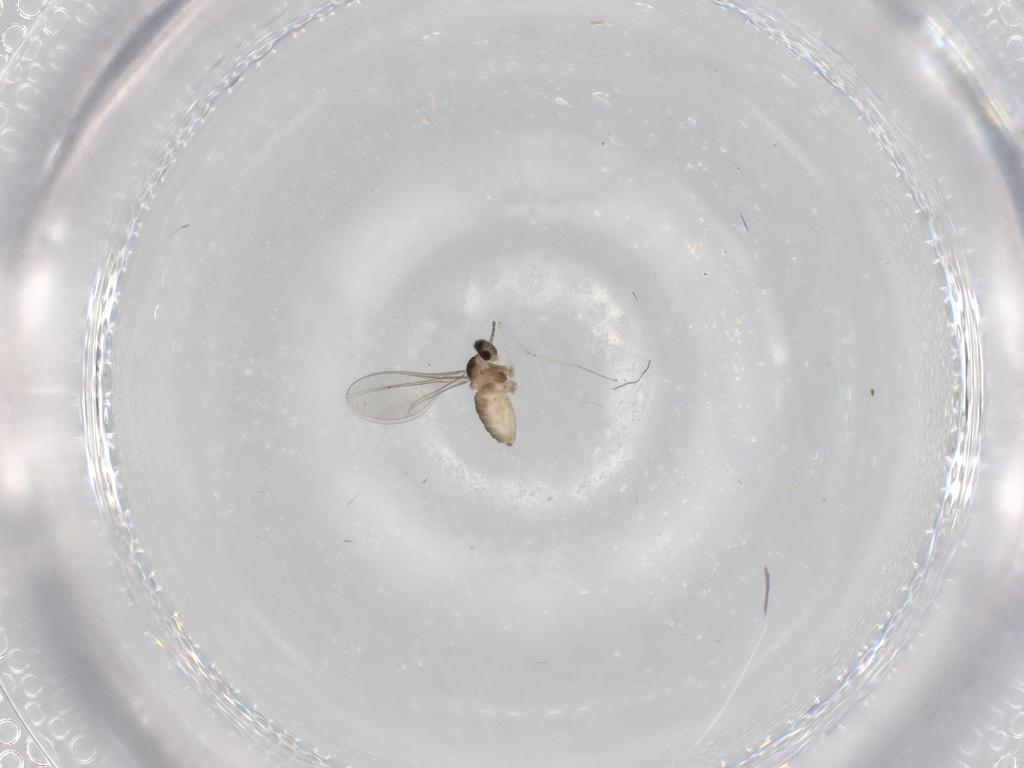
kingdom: Animalia
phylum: Arthropoda
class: Insecta
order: Diptera
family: Cecidomyiidae
